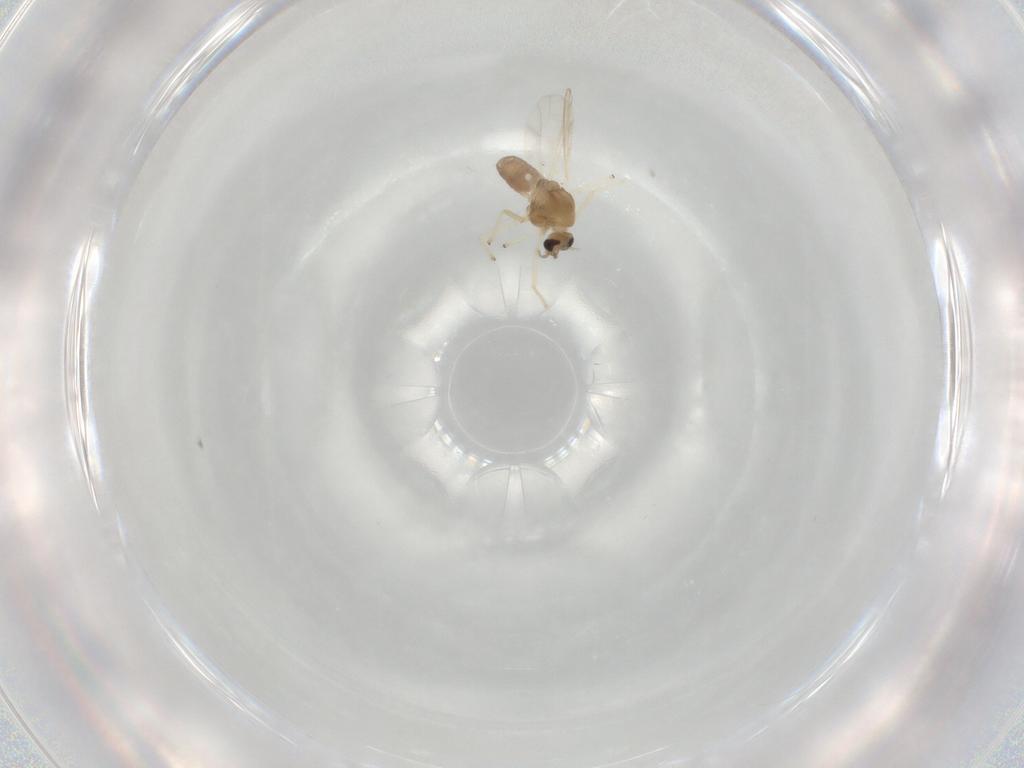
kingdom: Animalia
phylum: Arthropoda
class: Insecta
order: Diptera
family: Chironomidae
